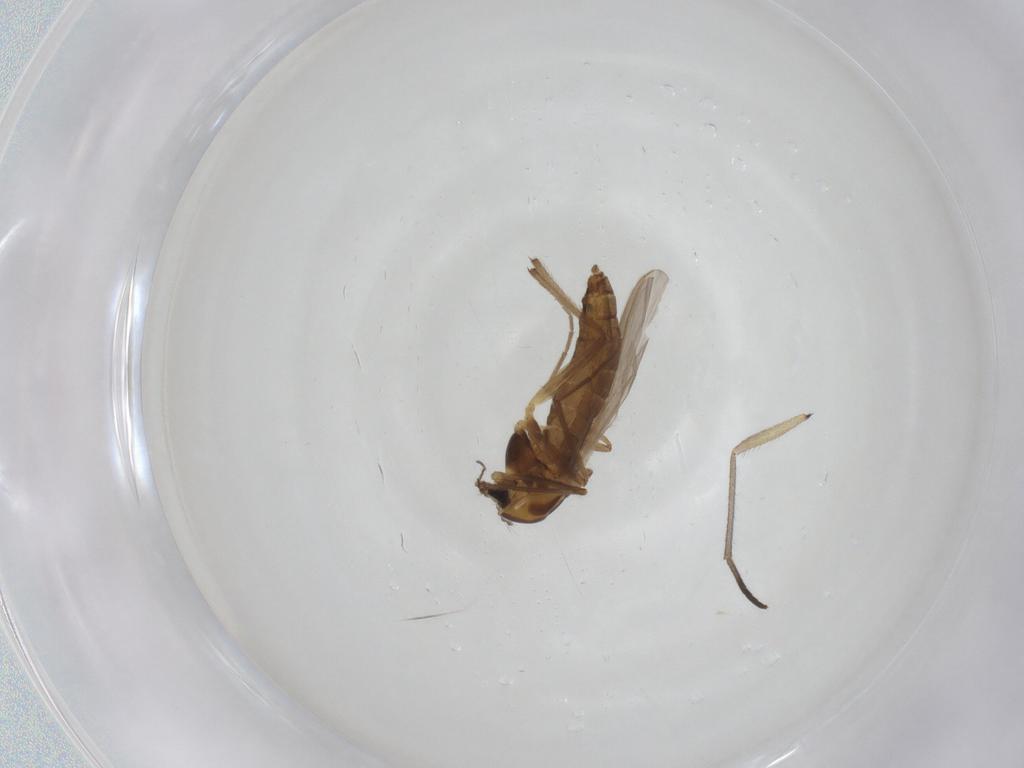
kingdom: Animalia
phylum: Arthropoda
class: Insecta
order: Diptera
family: Chironomidae
